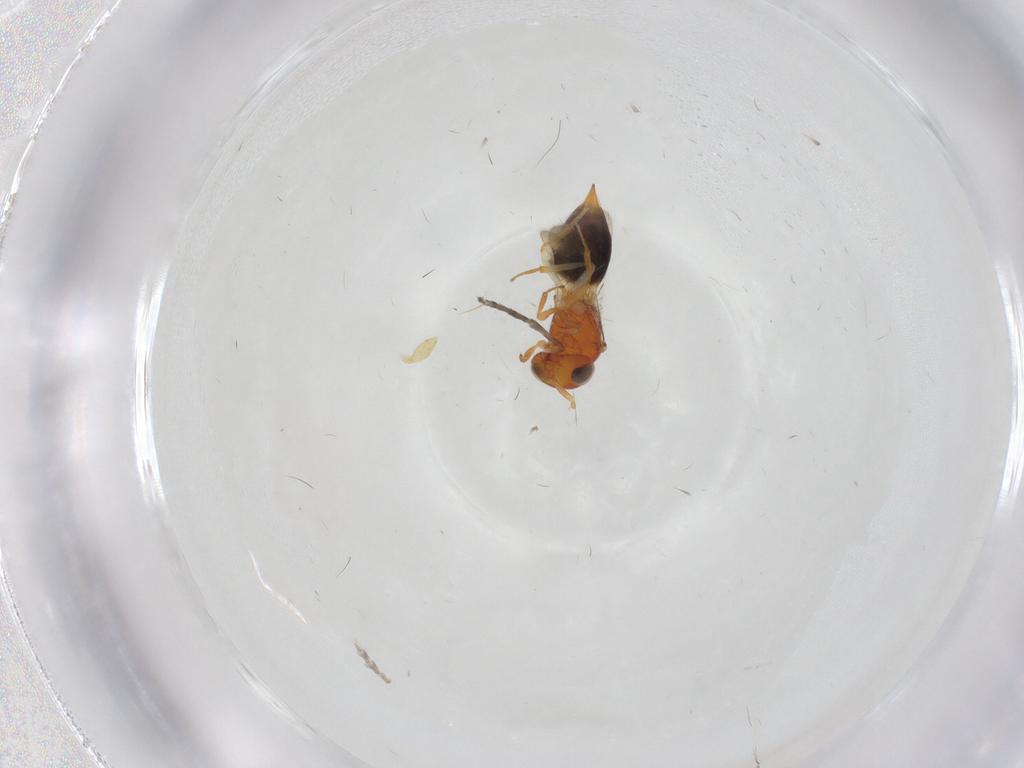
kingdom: Animalia
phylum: Arthropoda
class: Insecta
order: Hymenoptera
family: Scelionidae
